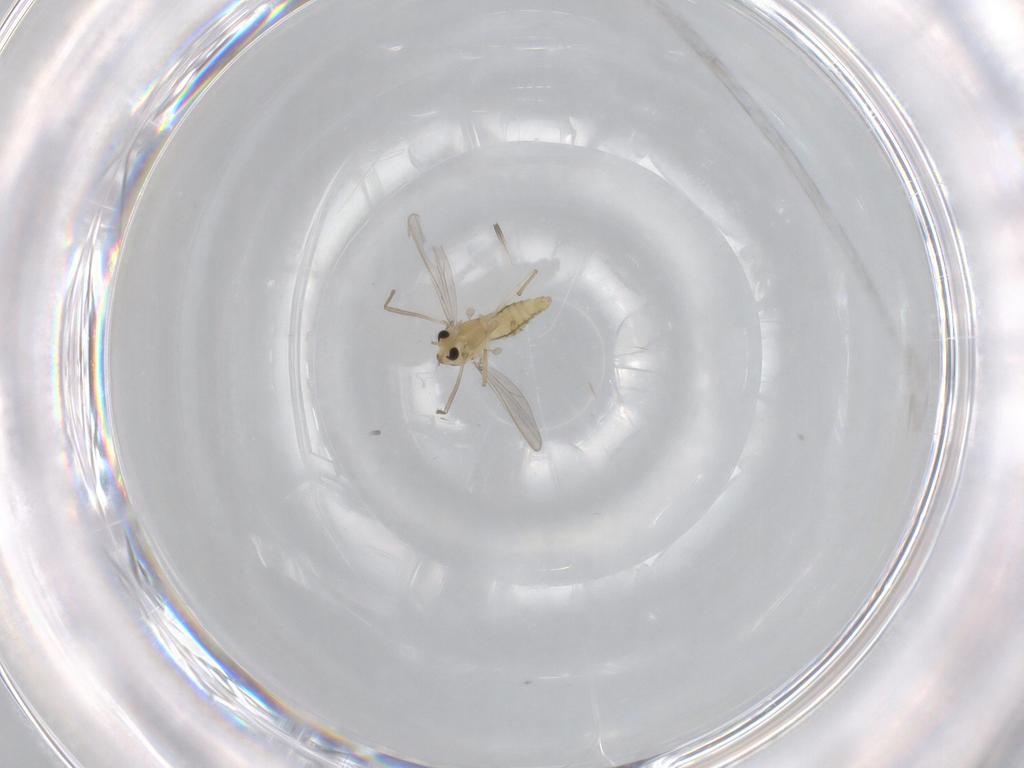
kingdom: Animalia
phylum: Arthropoda
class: Insecta
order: Diptera
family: Chironomidae
